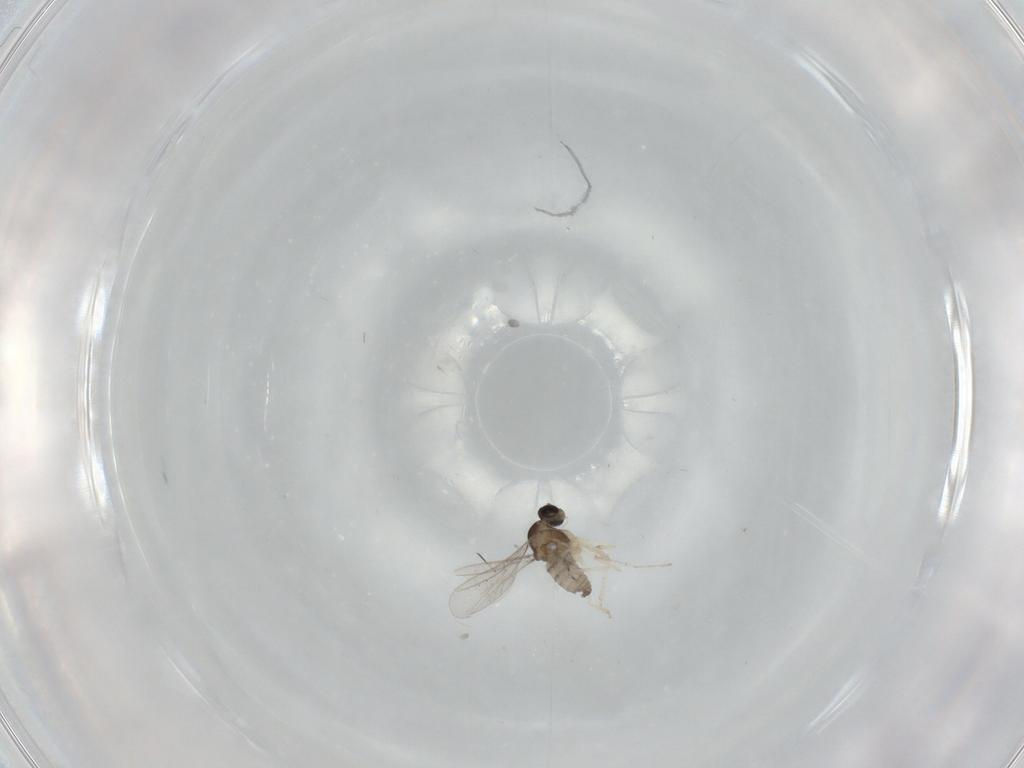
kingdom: Animalia
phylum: Arthropoda
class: Insecta
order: Diptera
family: Cecidomyiidae
